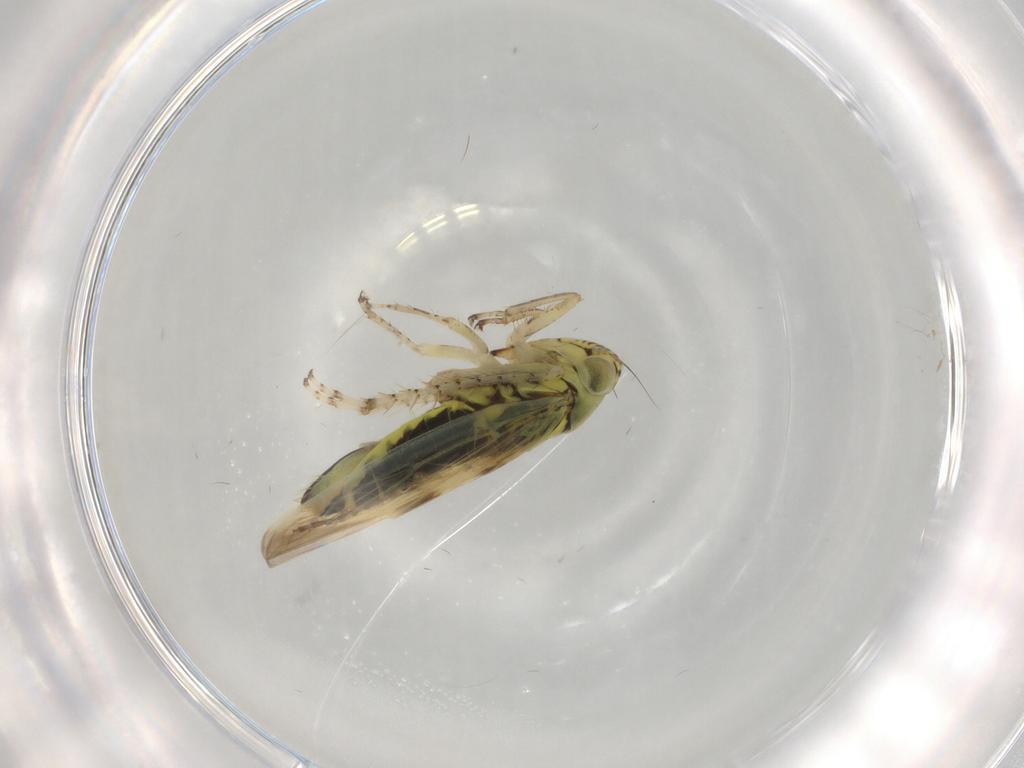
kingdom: Animalia
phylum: Arthropoda
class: Insecta
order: Hemiptera
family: Cicadellidae
